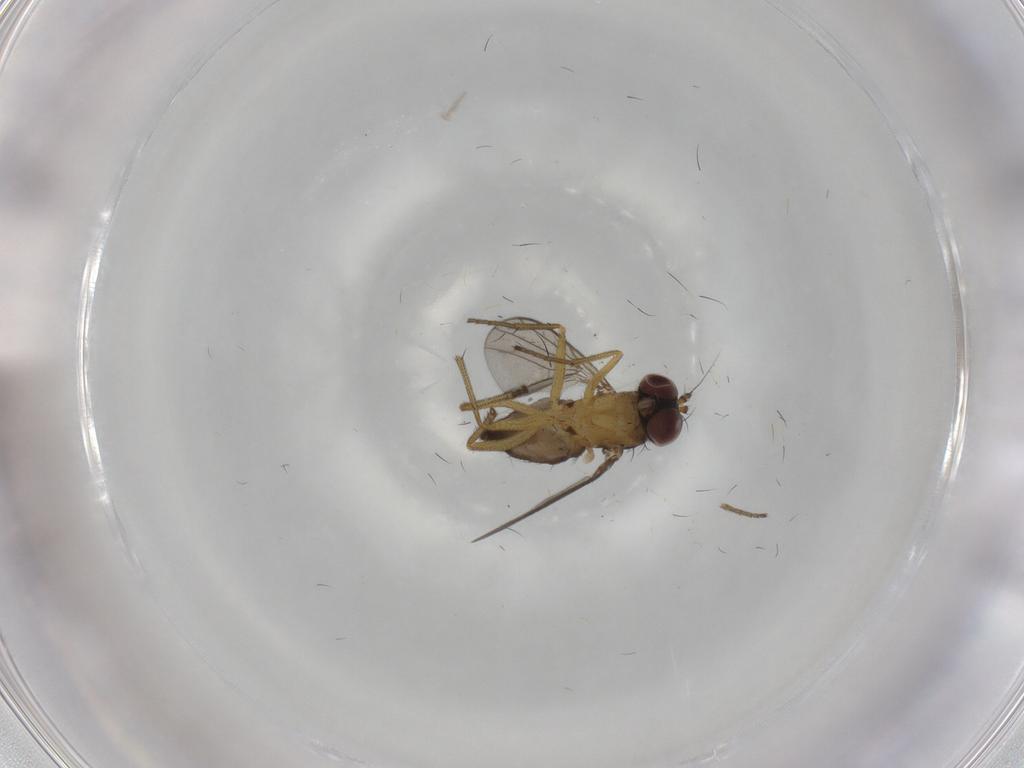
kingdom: Animalia
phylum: Arthropoda
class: Insecta
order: Diptera
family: Dolichopodidae
